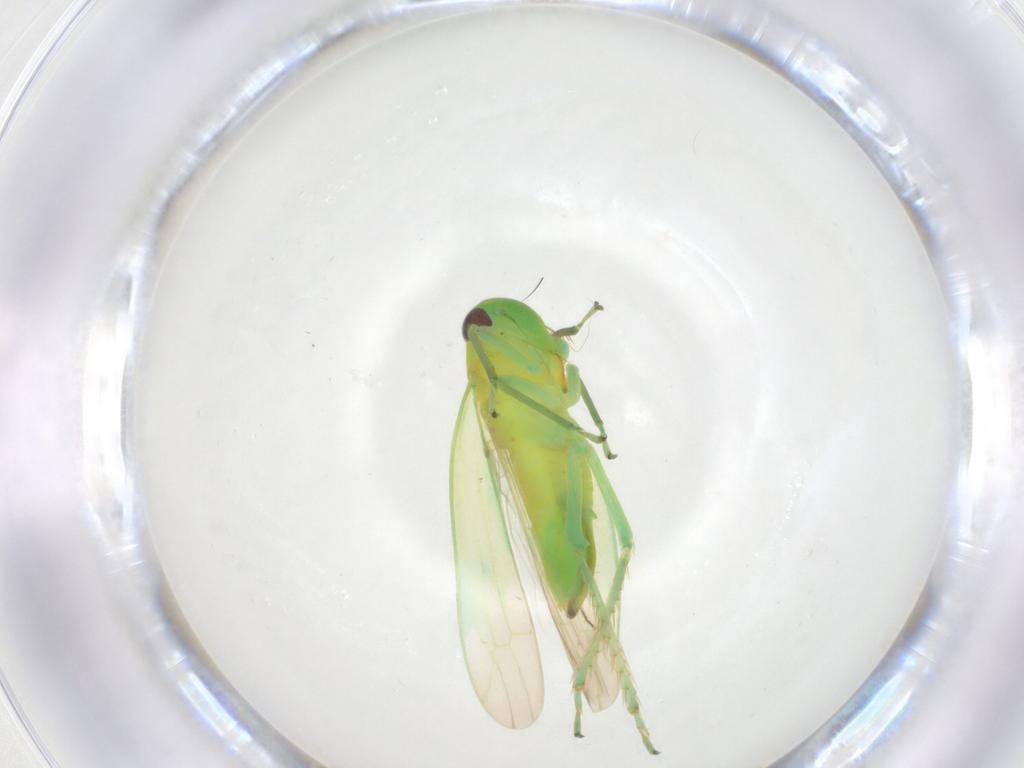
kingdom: Animalia
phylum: Arthropoda
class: Insecta
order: Hemiptera
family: Cicadellidae
